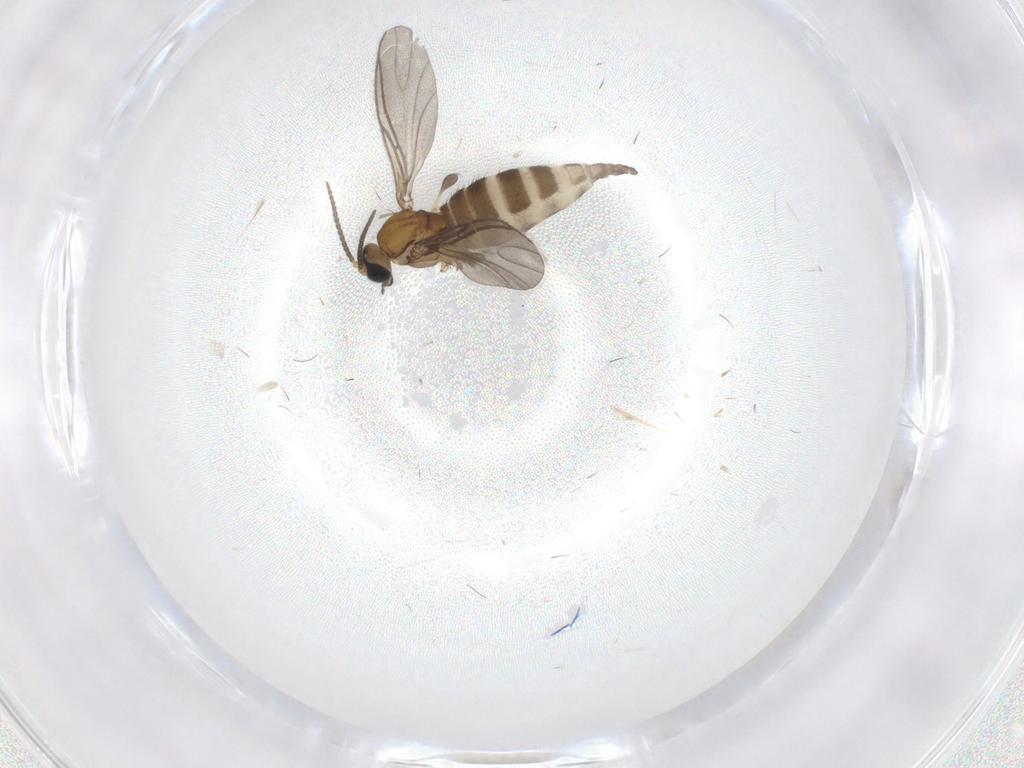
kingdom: Animalia
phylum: Arthropoda
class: Insecta
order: Diptera
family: Sciaridae
